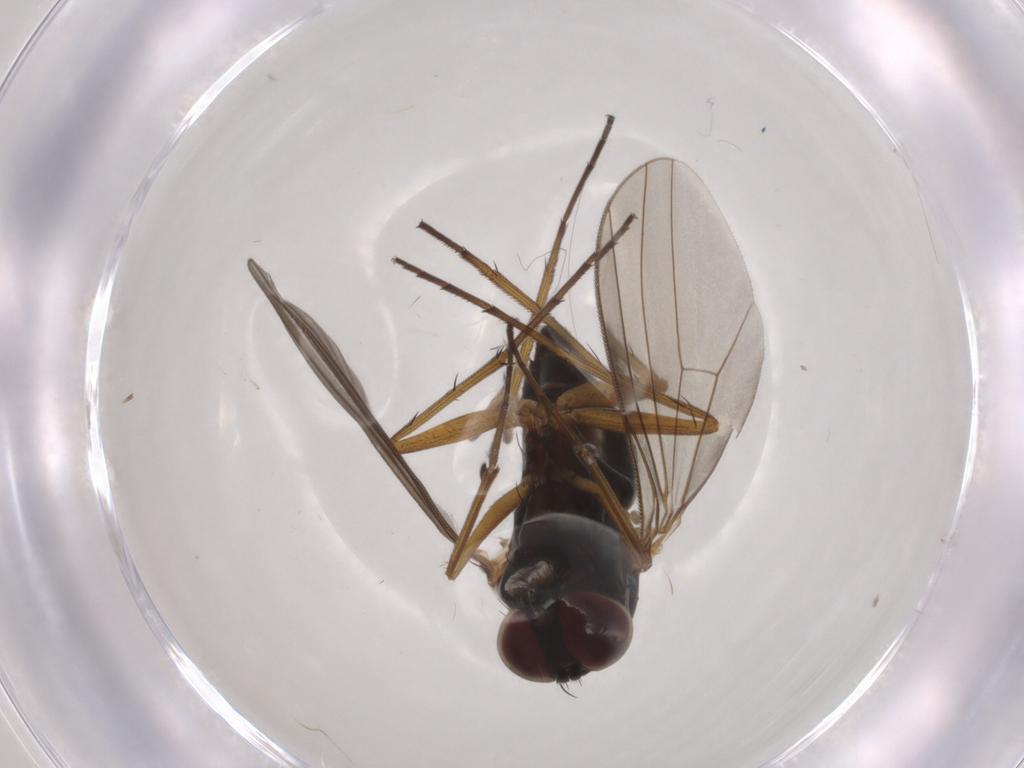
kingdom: Animalia
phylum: Arthropoda
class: Insecta
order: Diptera
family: Dolichopodidae
